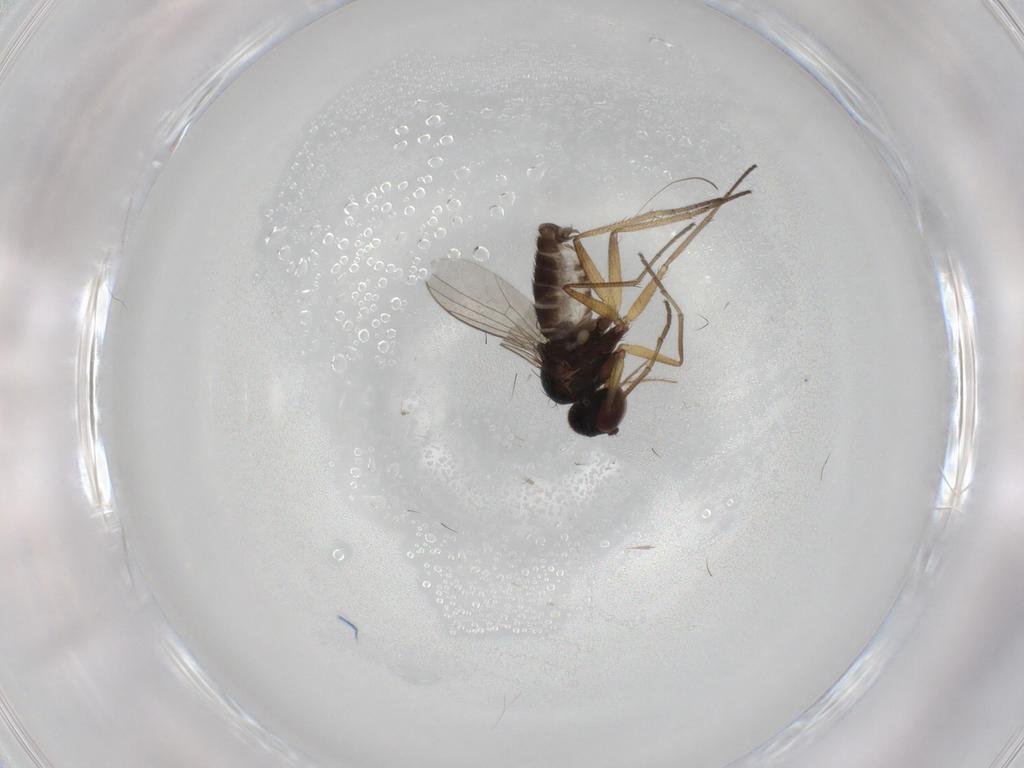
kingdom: Animalia
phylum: Arthropoda
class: Insecta
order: Diptera
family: Dolichopodidae
